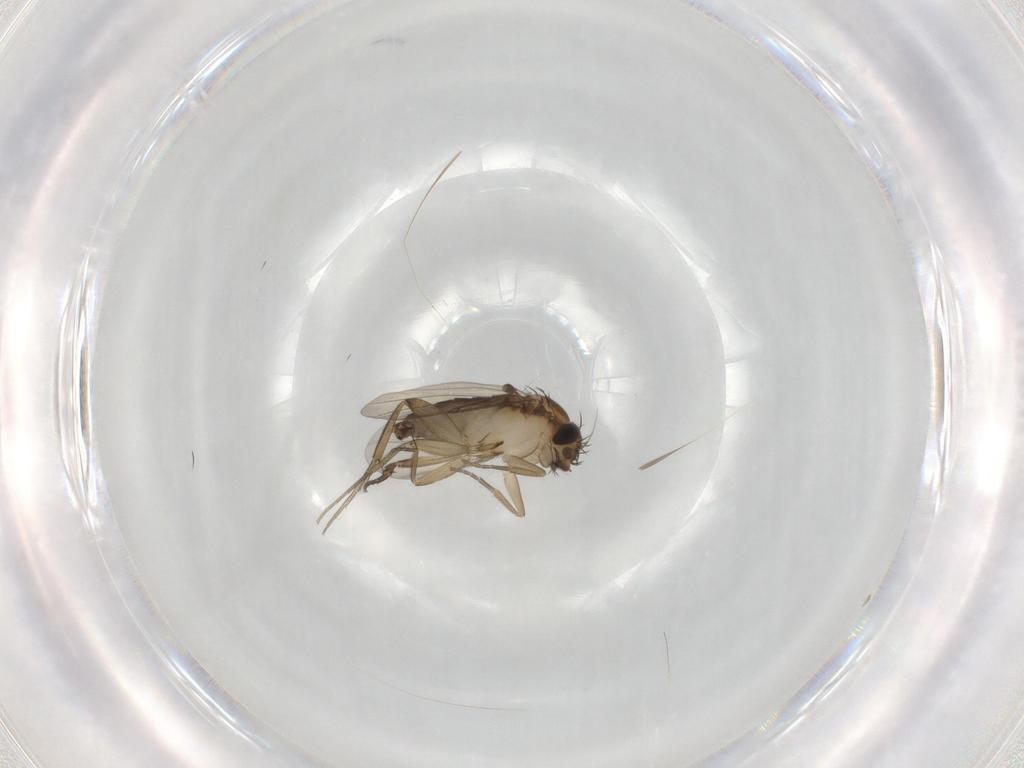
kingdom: Animalia
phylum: Arthropoda
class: Insecta
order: Diptera
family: Phoridae
